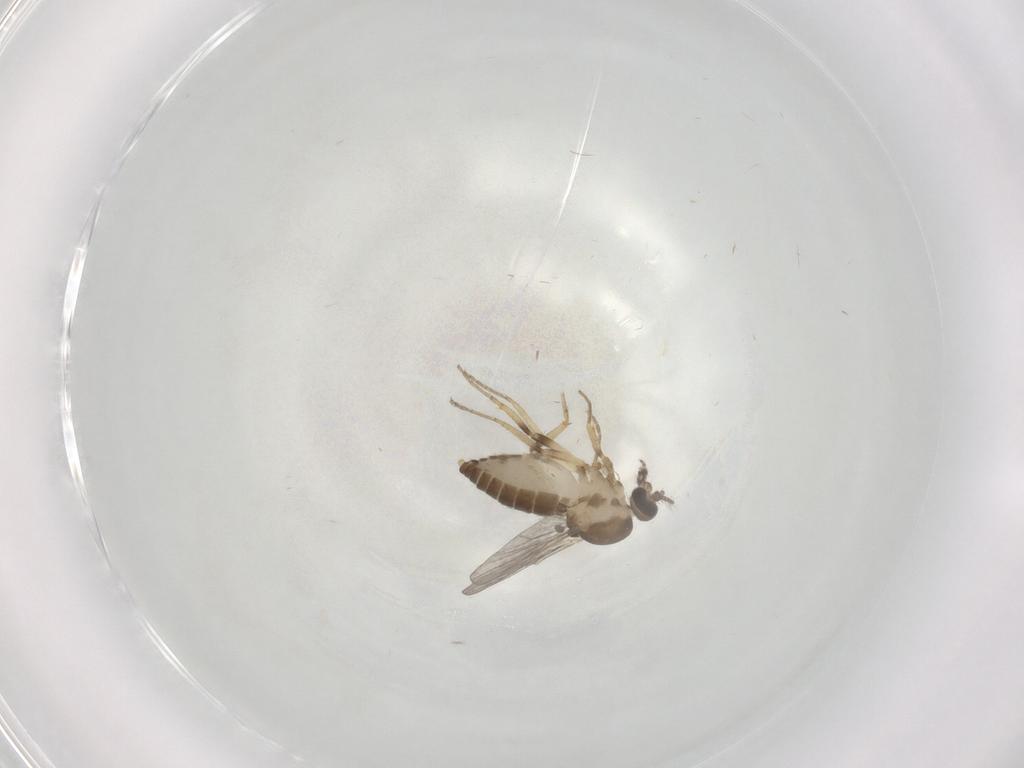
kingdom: Animalia
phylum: Arthropoda
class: Insecta
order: Diptera
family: Ceratopogonidae
